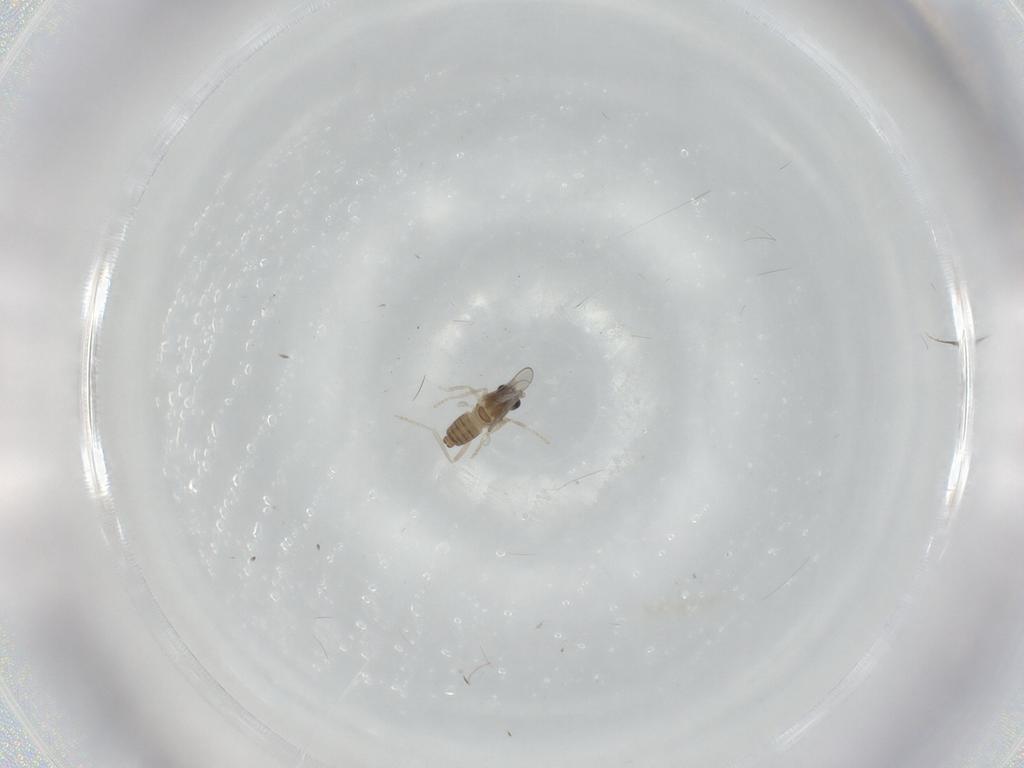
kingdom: Animalia
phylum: Arthropoda
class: Insecta
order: Diptera
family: Cecidomyiidae
